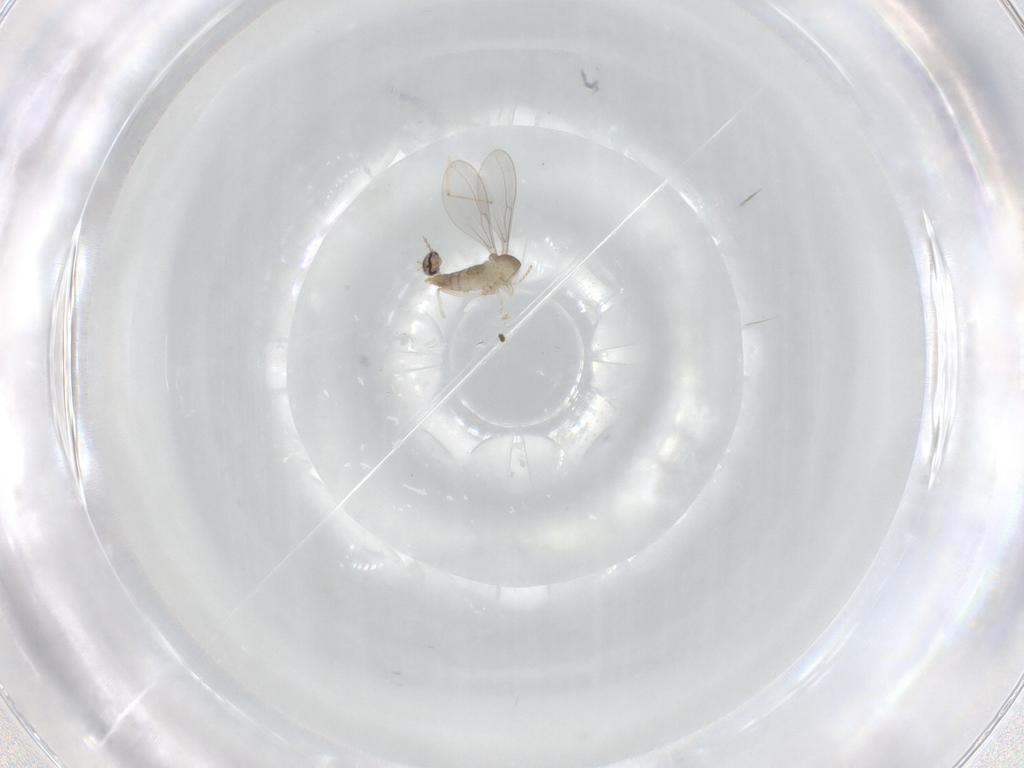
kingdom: Animalia
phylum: Arthropoda
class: Insecta
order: Diptera
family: Cecidomyiidae
